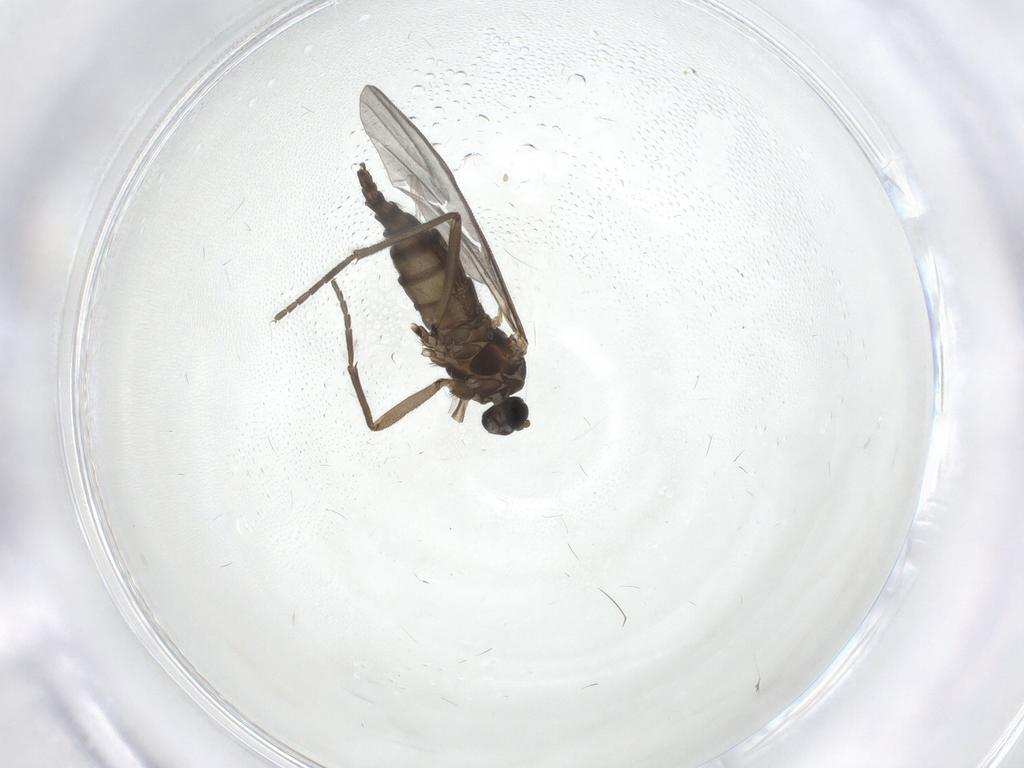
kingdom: Animalia
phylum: Arthropoda
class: Insecta
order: Diptera
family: Sciaridae
